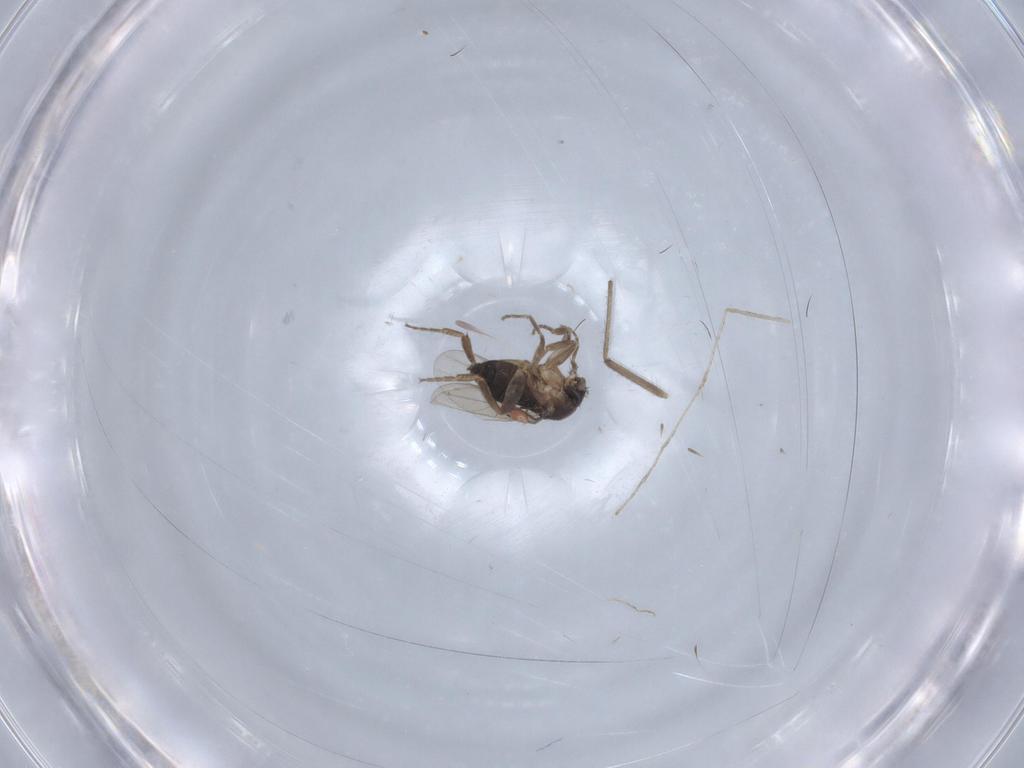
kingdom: Animalia
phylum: Arthropoda
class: Insecta
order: Diptera
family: Phoridae
